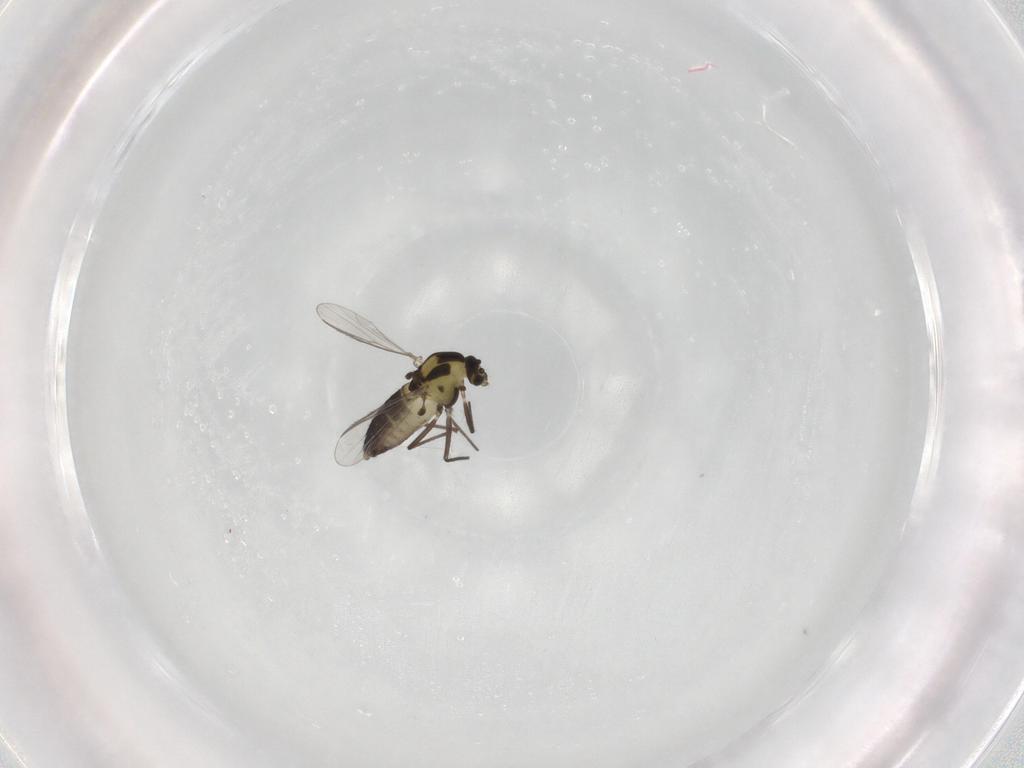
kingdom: Animalia
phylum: Arthropoda
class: Insecta
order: Diptera
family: Chironomidae
